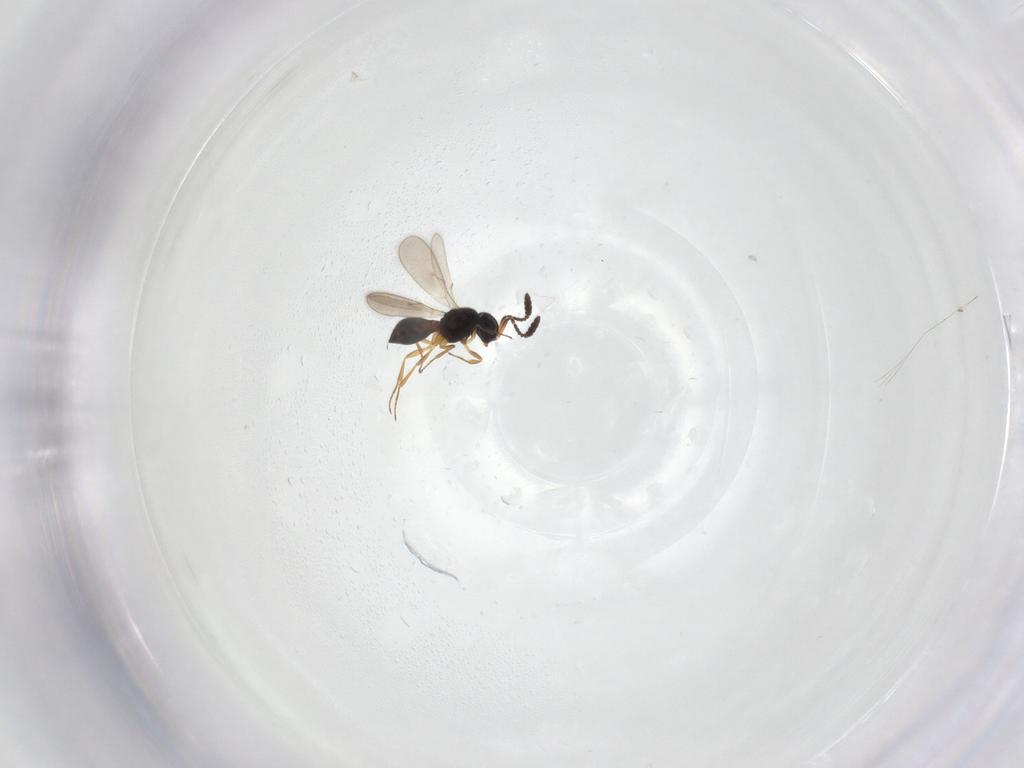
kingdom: Animalia
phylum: Arthropoda
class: Insecta
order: Hymenoptera
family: Scelionidae
